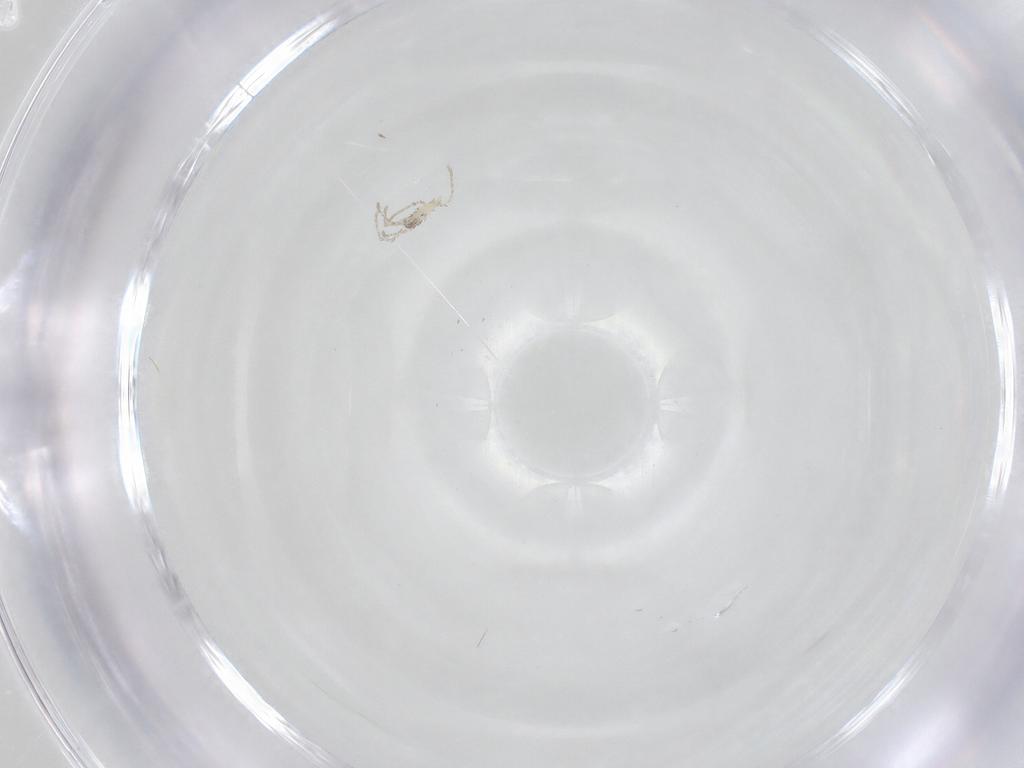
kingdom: Animalia
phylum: Arthropoda
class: Arachnida
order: Trombidiformes
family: Erythraeidae
